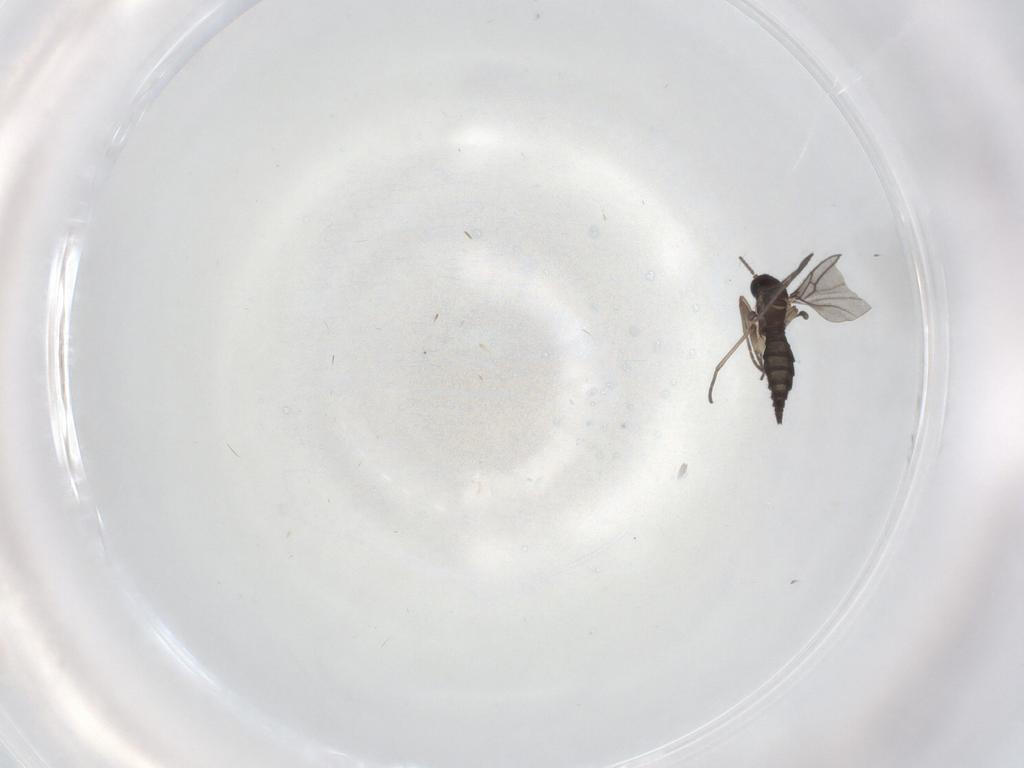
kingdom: Animalia
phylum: Arthropoda
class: Insecta
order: Diptera
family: Sciaridae
